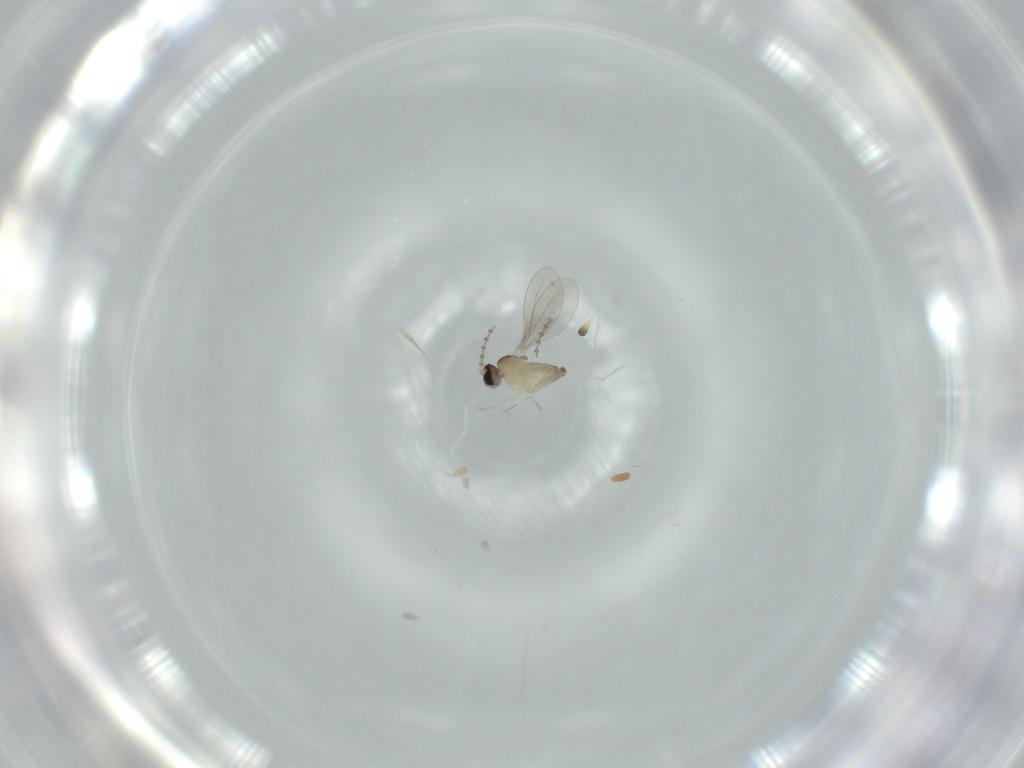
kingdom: Animalia
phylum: Arthropoda
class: Insecta
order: Diptera
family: Cecidomyiidae
